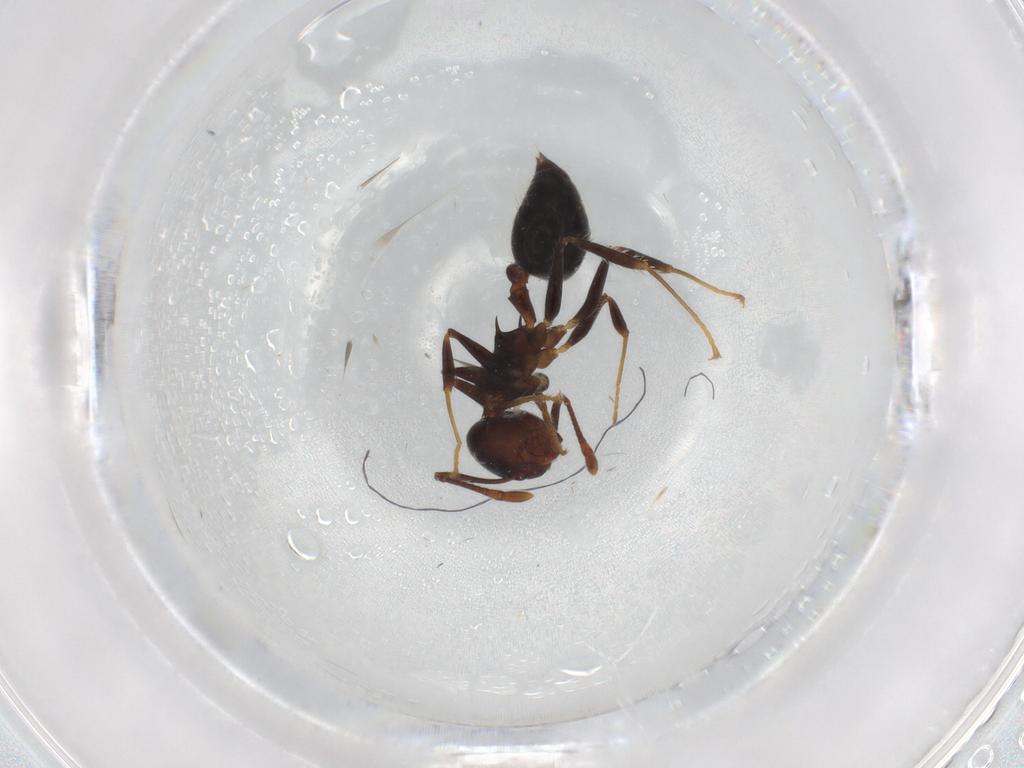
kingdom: Animalia
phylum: Arthropoda
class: Insecta
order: Hymenoptera
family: Formicidae
